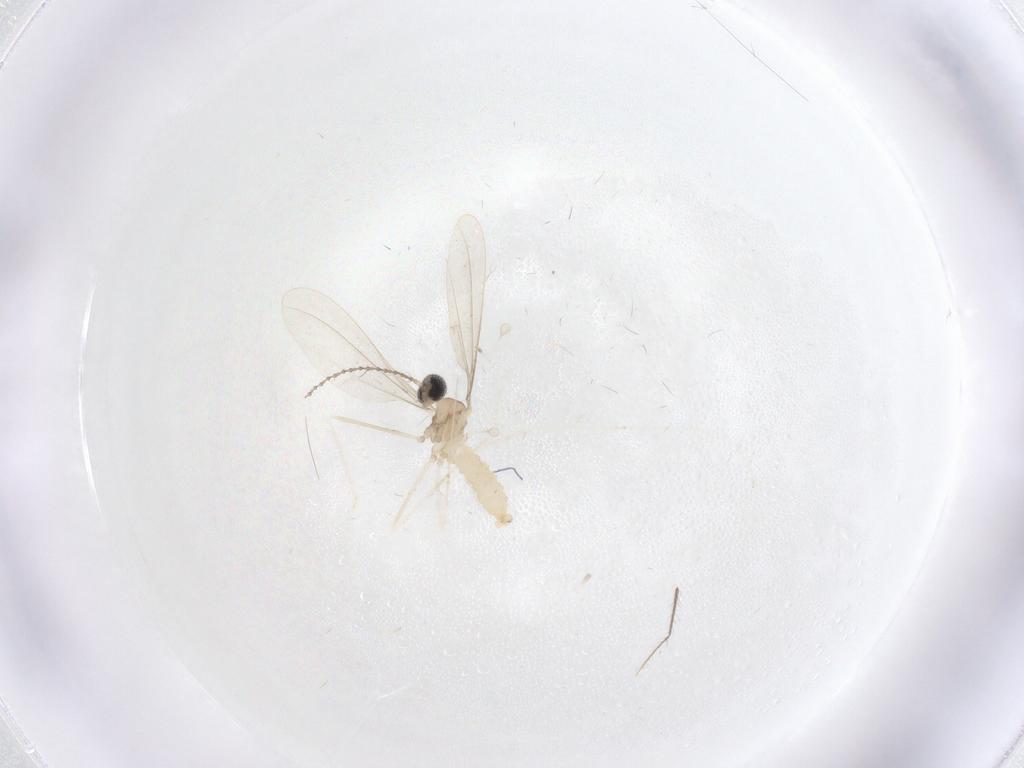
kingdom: Animalia
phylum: Arthropoda
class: Insecta
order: Diptera
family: Cecidomyiidae
